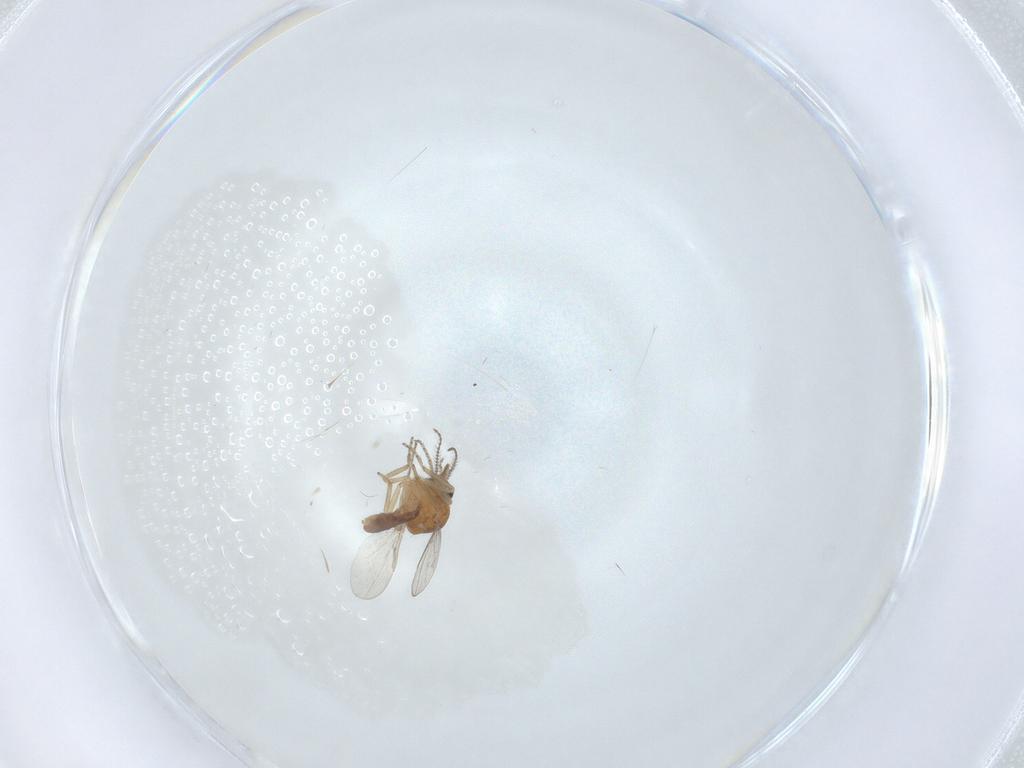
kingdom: Animalia
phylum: Arthropoda
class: Insecta
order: Diptera
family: Ceratopogonidae
